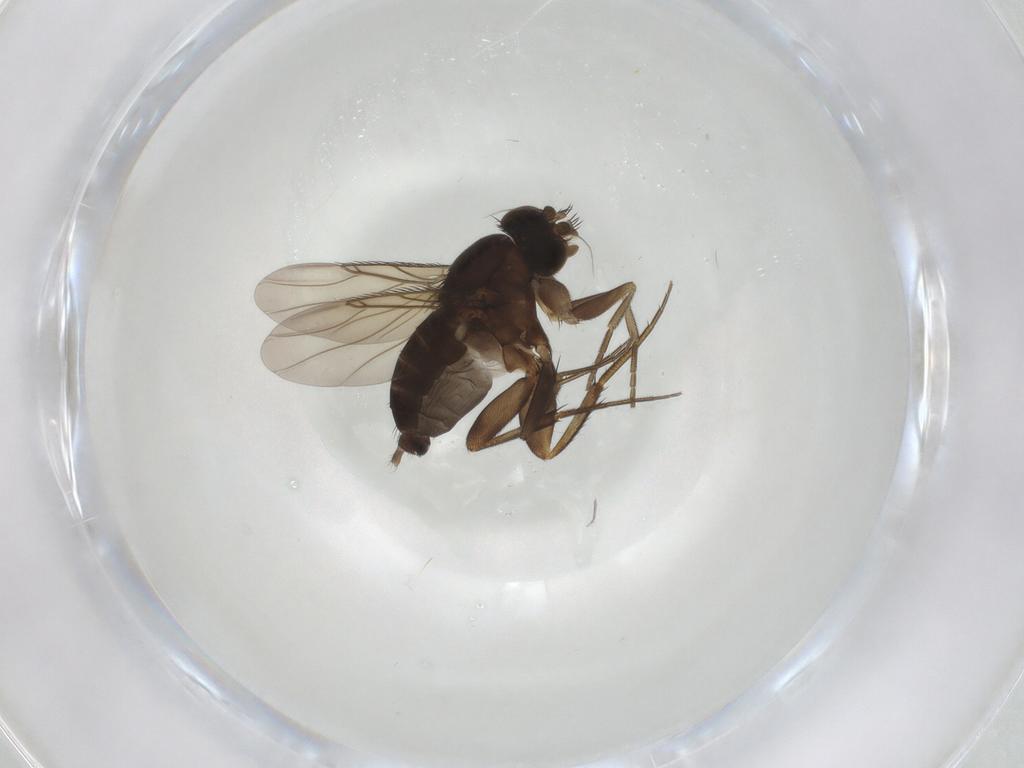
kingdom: Animalia
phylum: Arthropoda
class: Insecta
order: Diptera
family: Phoridae
